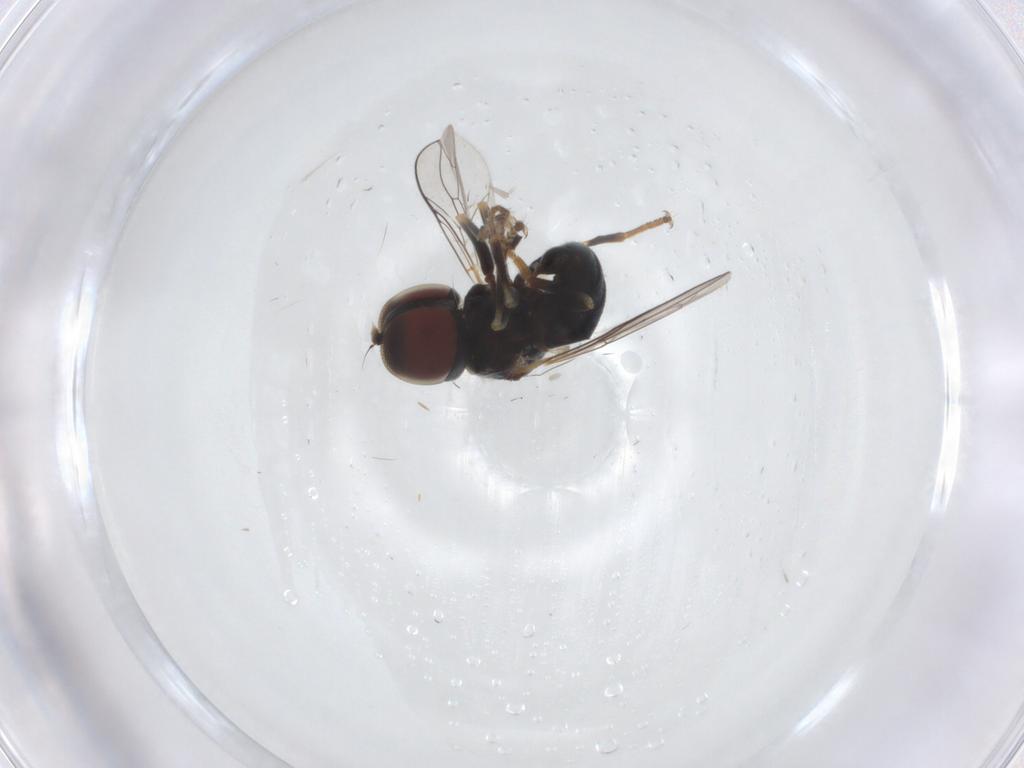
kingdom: Animalia
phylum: Arthropoda
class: Insecta
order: Diptera
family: Pipunculidae
